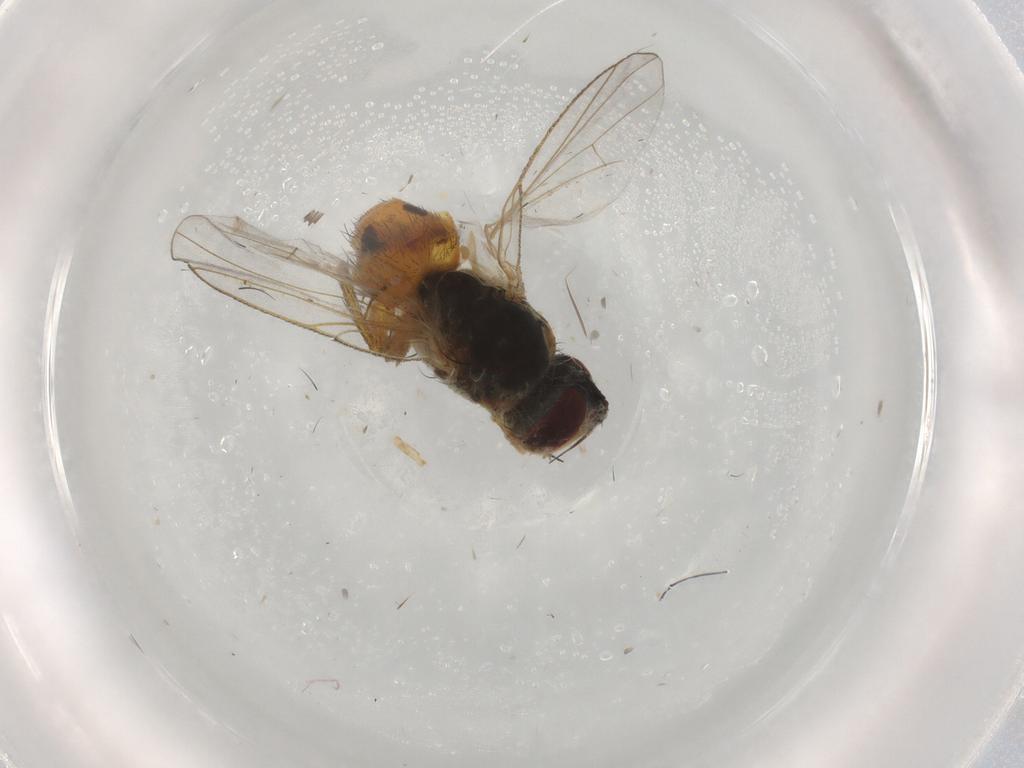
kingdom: Animalia
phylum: Arthropoda
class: Insecta
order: Diptera
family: Muscidae
